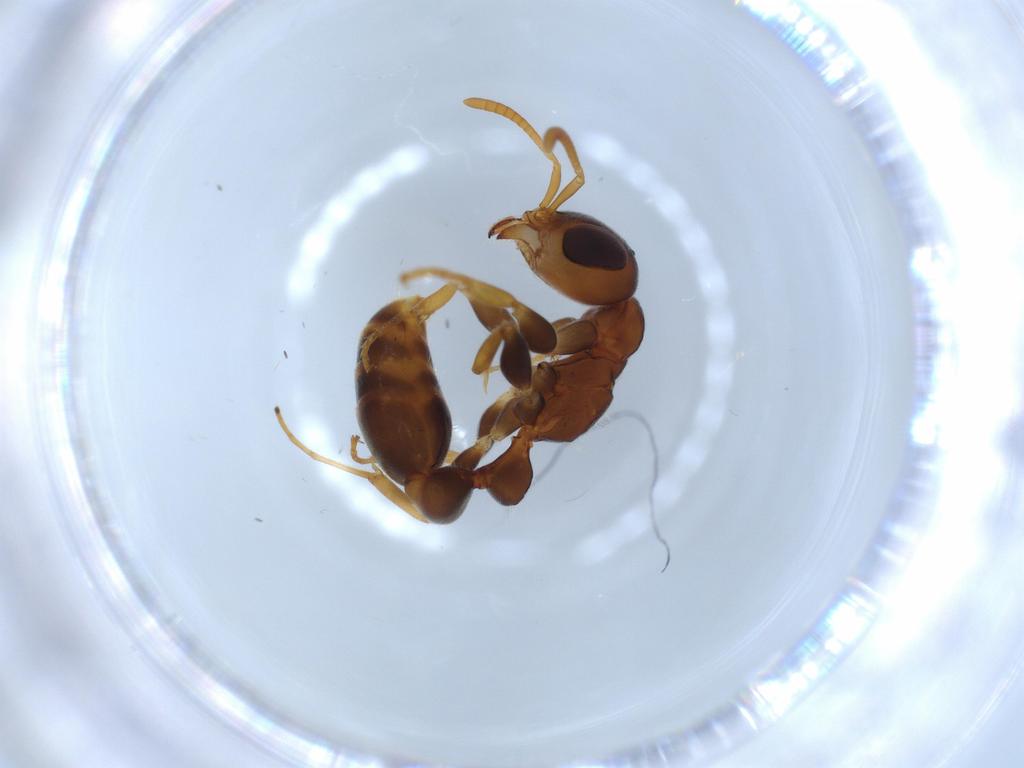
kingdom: Animalia
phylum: Arthropoda
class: Insecta
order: Hymenoptera
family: Formicidae
